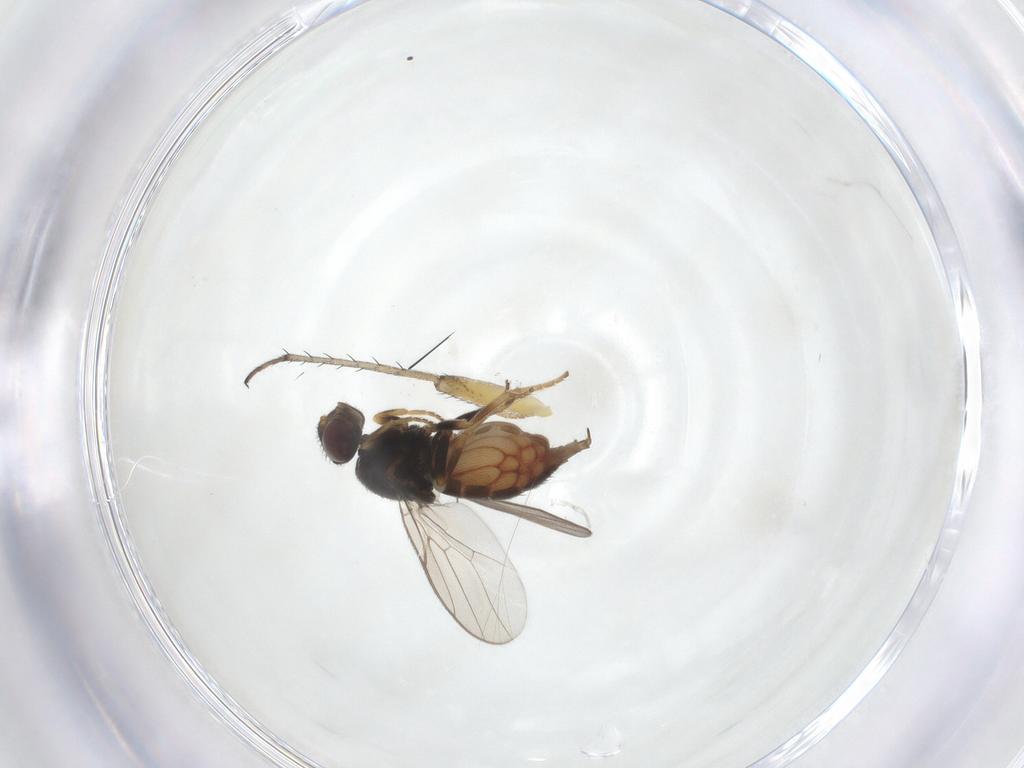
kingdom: Animalia
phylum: Arthropoda
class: Insecta
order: Diptera
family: Chloropidae
